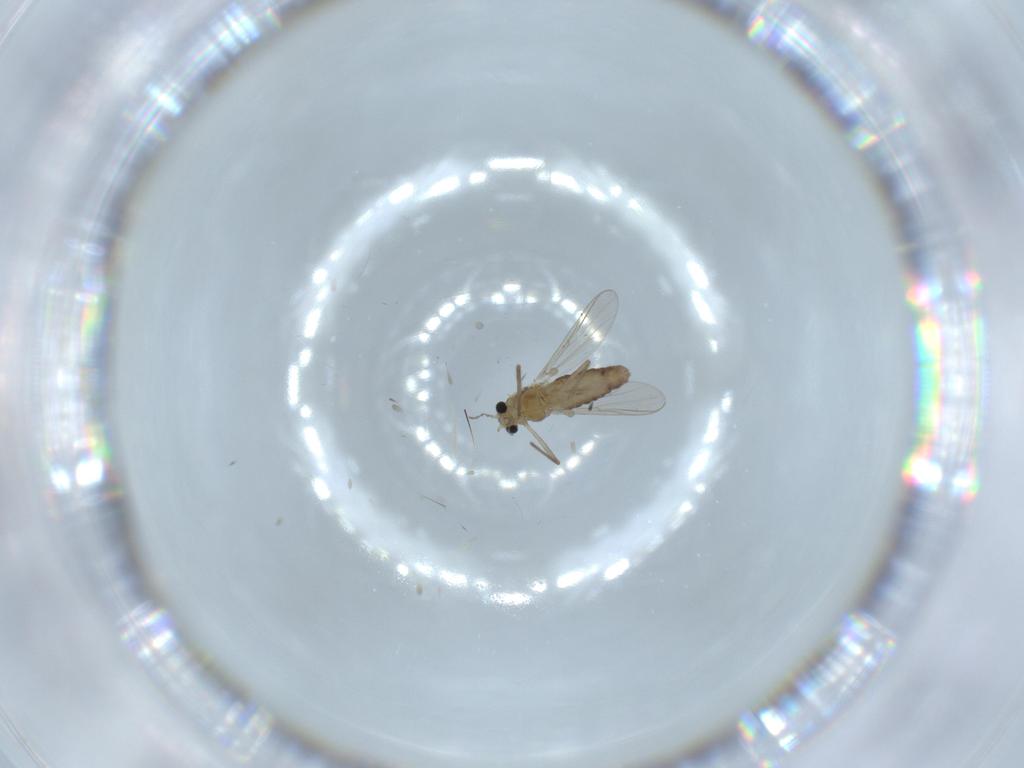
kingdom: Animalia
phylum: Arthropoda
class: Insecta
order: Diptera
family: Chironomidae
